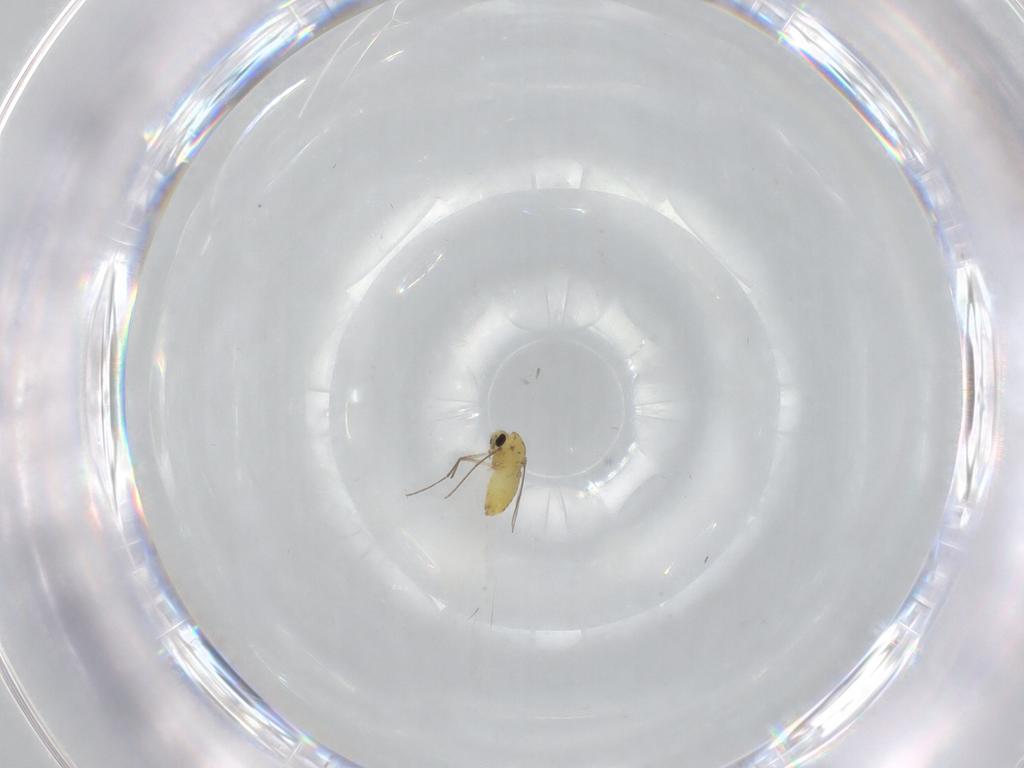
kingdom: Animalia
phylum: Arthropoda
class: Insecta
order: Diptera
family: Chironomidae
